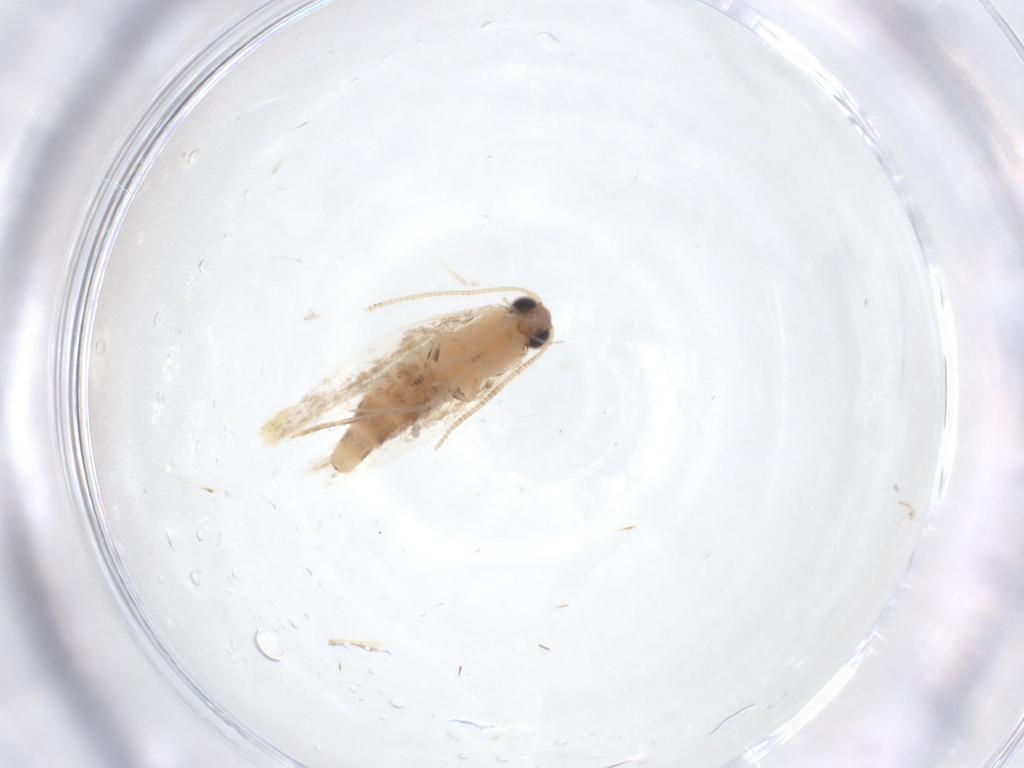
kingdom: Animalia
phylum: Arthropoda
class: Insecta
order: Lepidoptera
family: Tineidae
